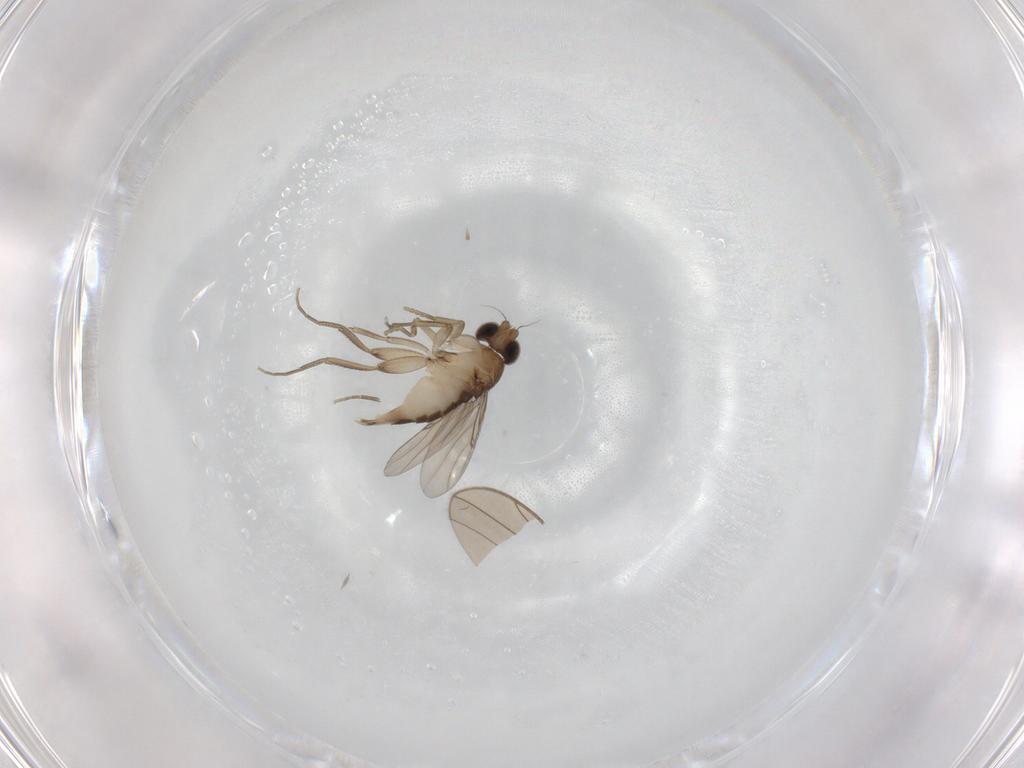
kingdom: Animalia
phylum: Arthropoda
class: Insecta
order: Diptera
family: Phoridae
